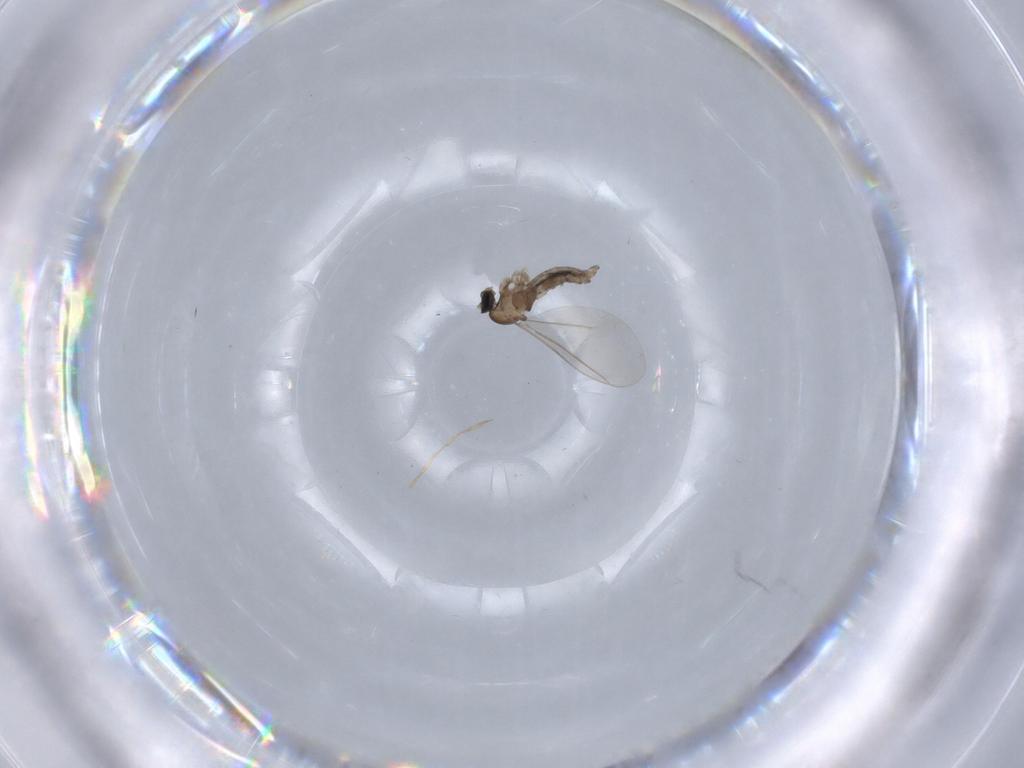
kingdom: Animalia
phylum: Arthropoda
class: Insecta
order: Diptera
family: Cecidomyiidae
